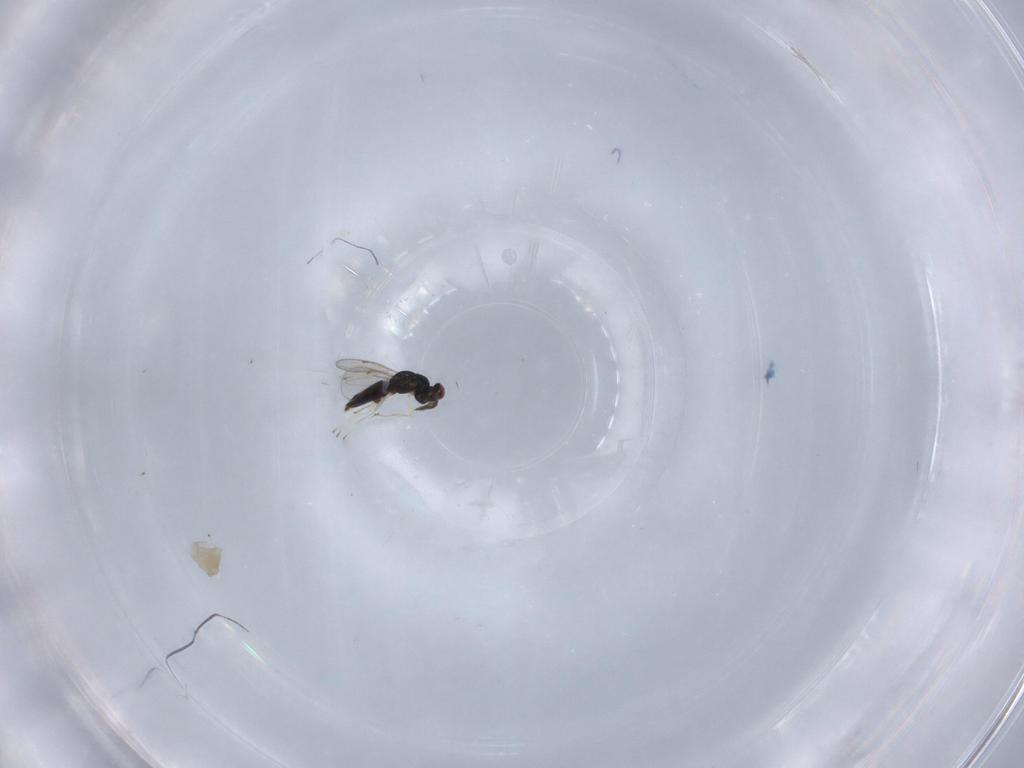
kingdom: Animalia
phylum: Arthropoda
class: Insecta
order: Hymenoptera
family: Eulophidae
